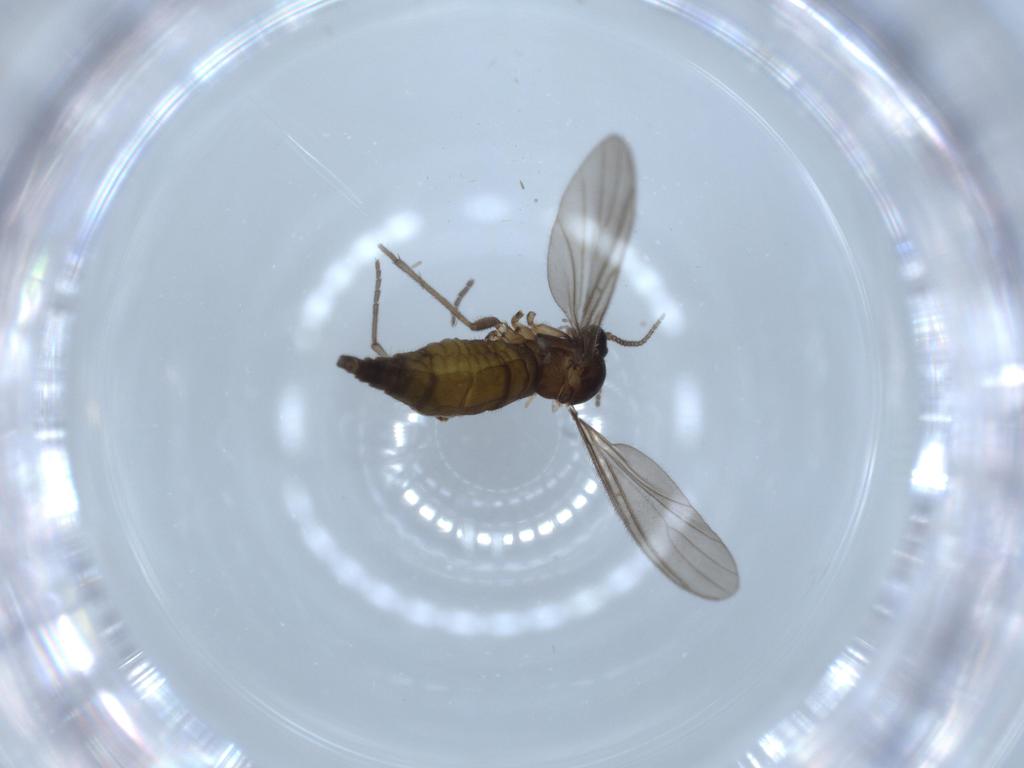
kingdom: Animalia
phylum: Arthropoda
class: Insecta
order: Diptera
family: Sciaridae
